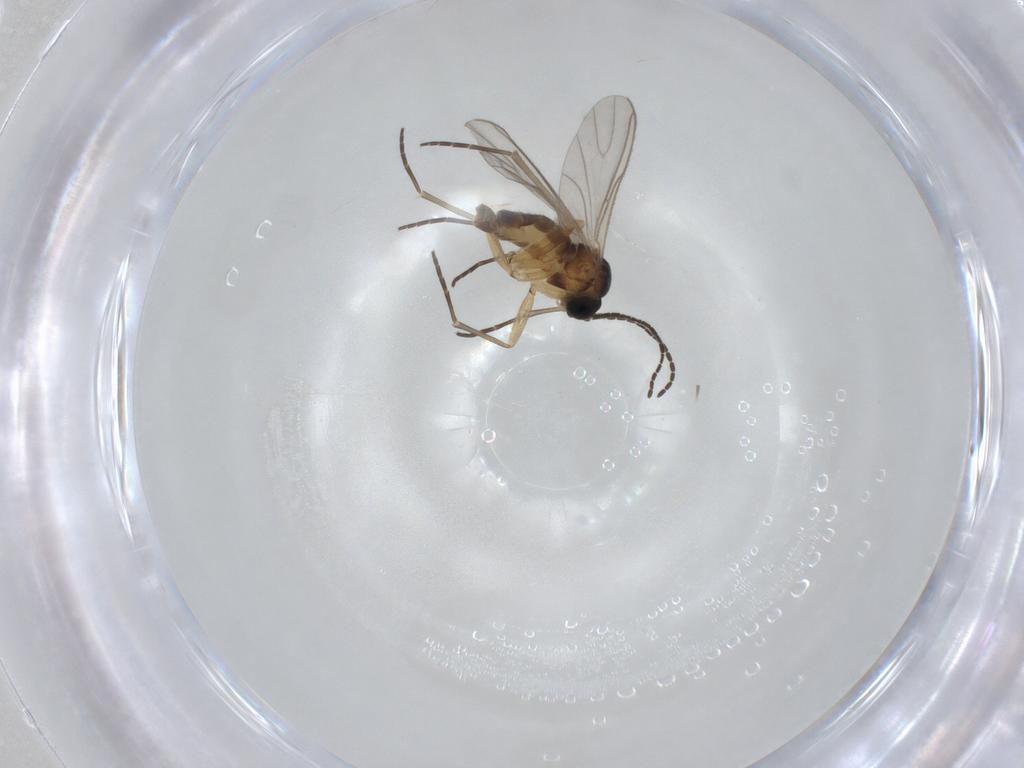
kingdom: Animalia
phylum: Arthropoda
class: Insecta
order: Diptera
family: Sciaridae
